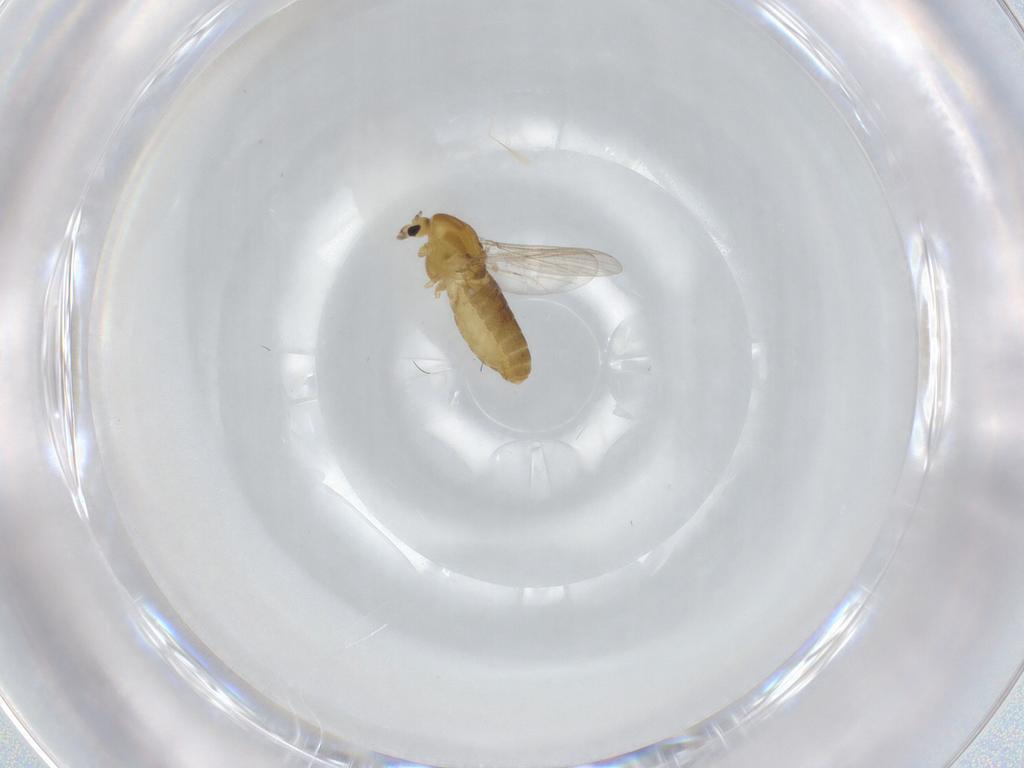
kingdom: Animalia
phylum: Arthropoda
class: Insecta
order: Diptera
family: Chironomidae
